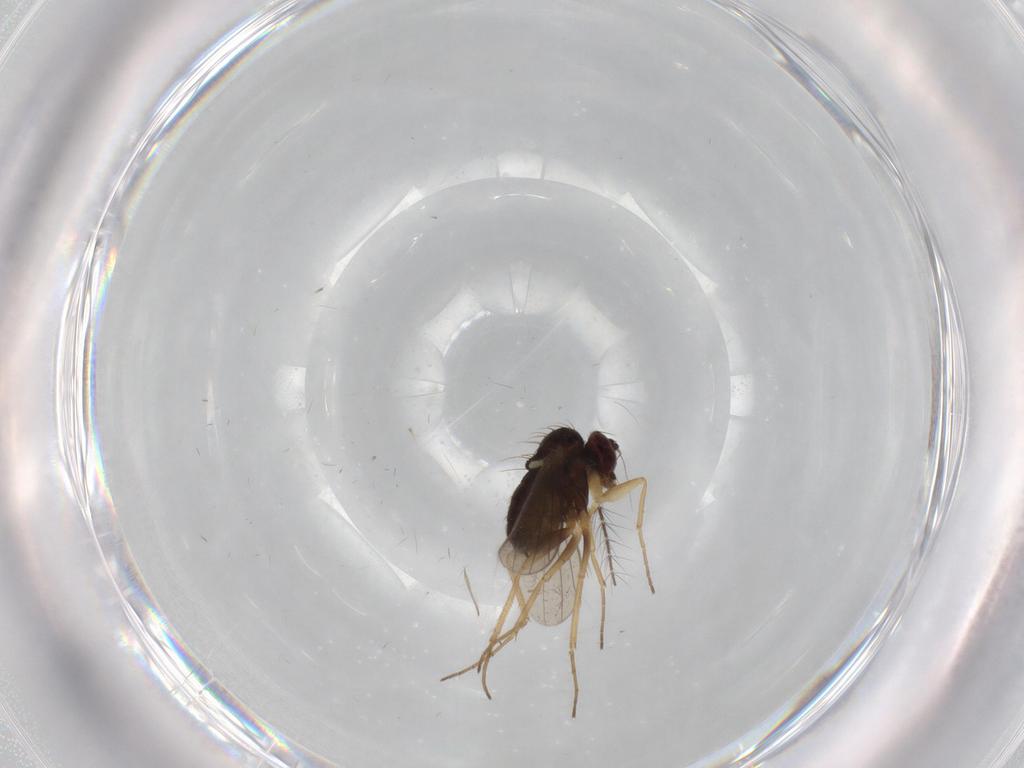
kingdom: Animalia
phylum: Arthropoda
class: Insecta
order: Diptera
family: Dolichopodidae
